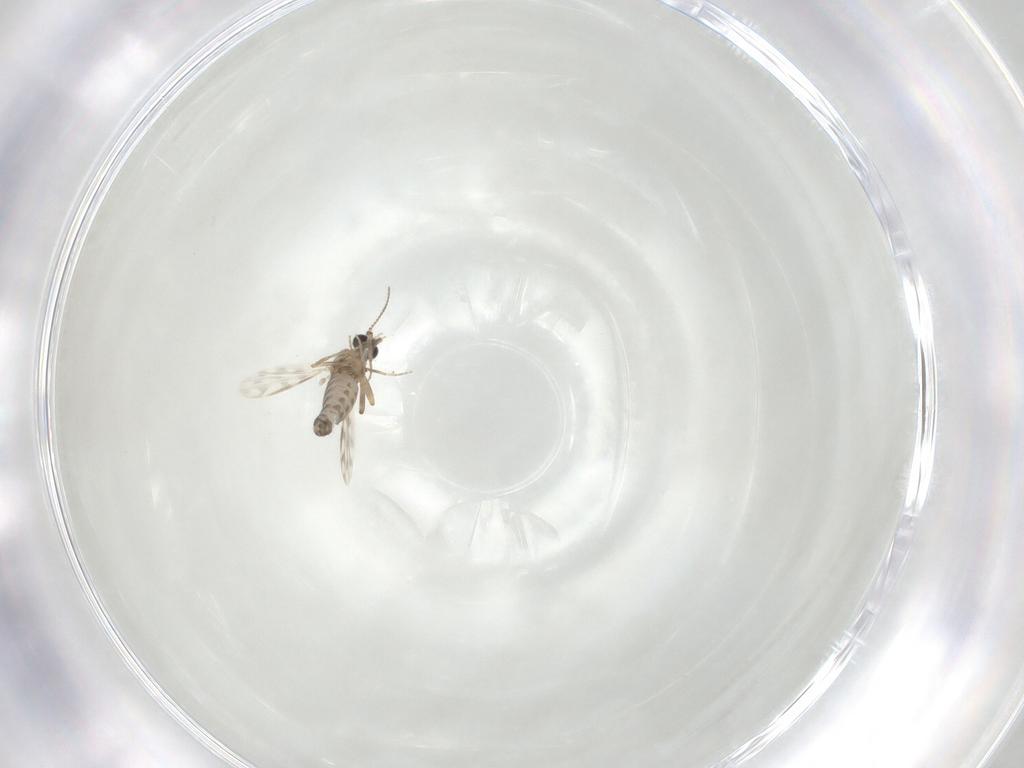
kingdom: Animalia
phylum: Arthropoda
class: Insecta
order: Diptera
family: Ceratopogonidae
